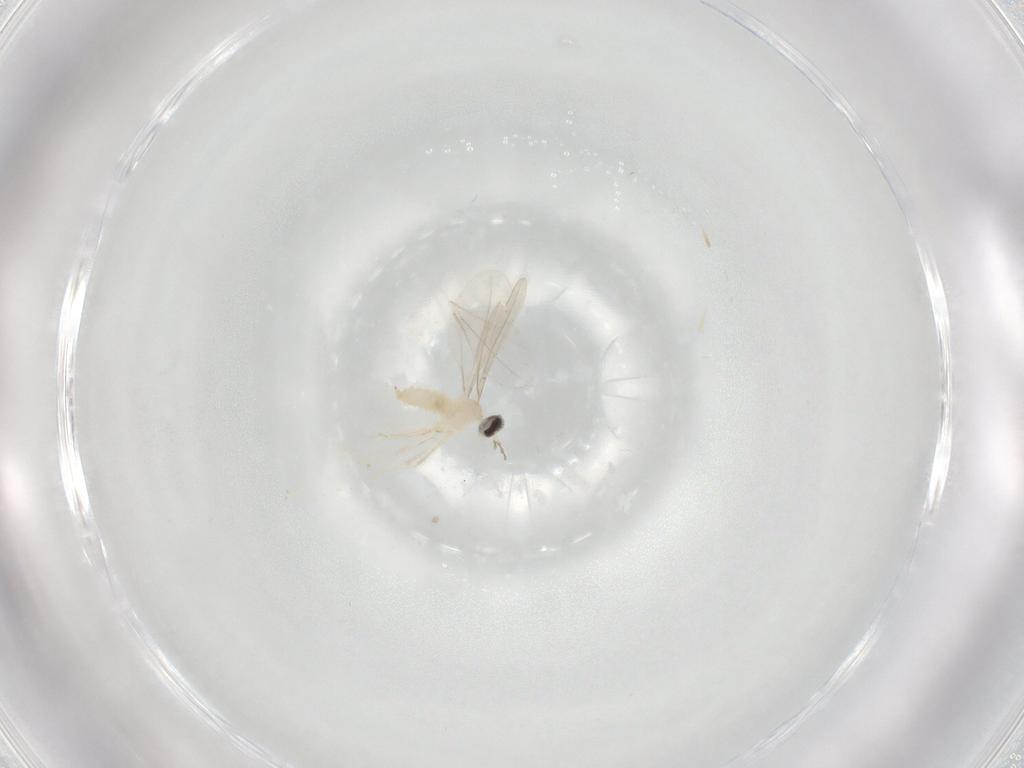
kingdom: Animalia
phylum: Arthropoda
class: Insecta
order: Diptera
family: Cecidomyiidae
